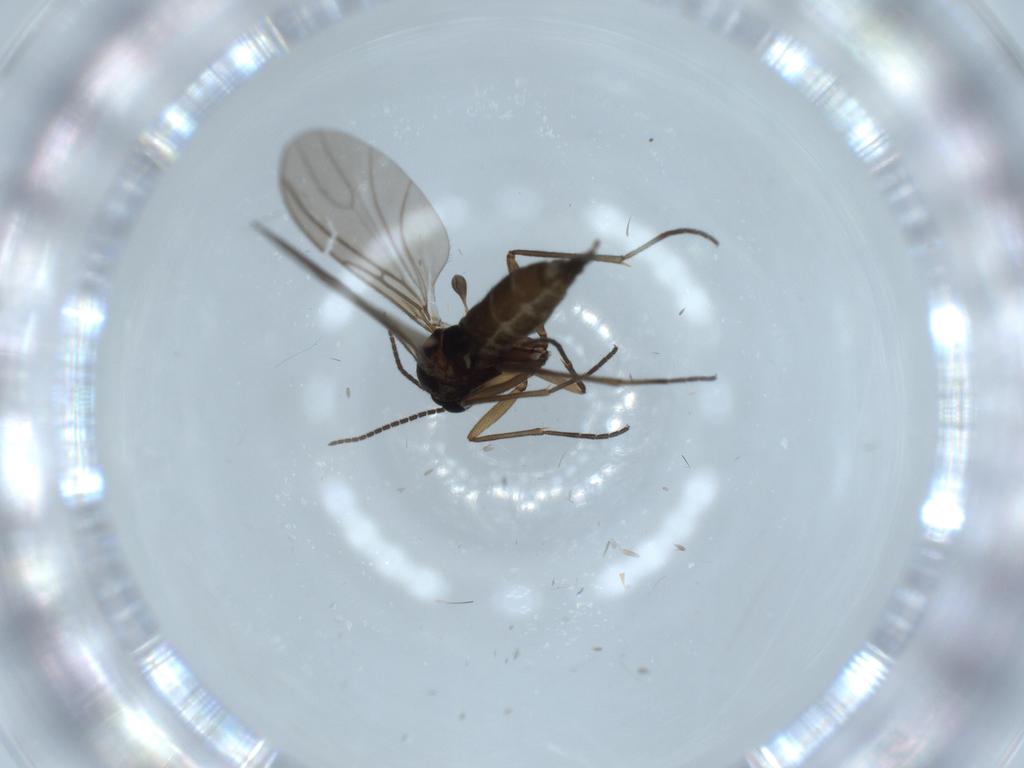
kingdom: Animalia
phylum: Arthropoda
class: Insecta
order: Diptera
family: Sciaridae
